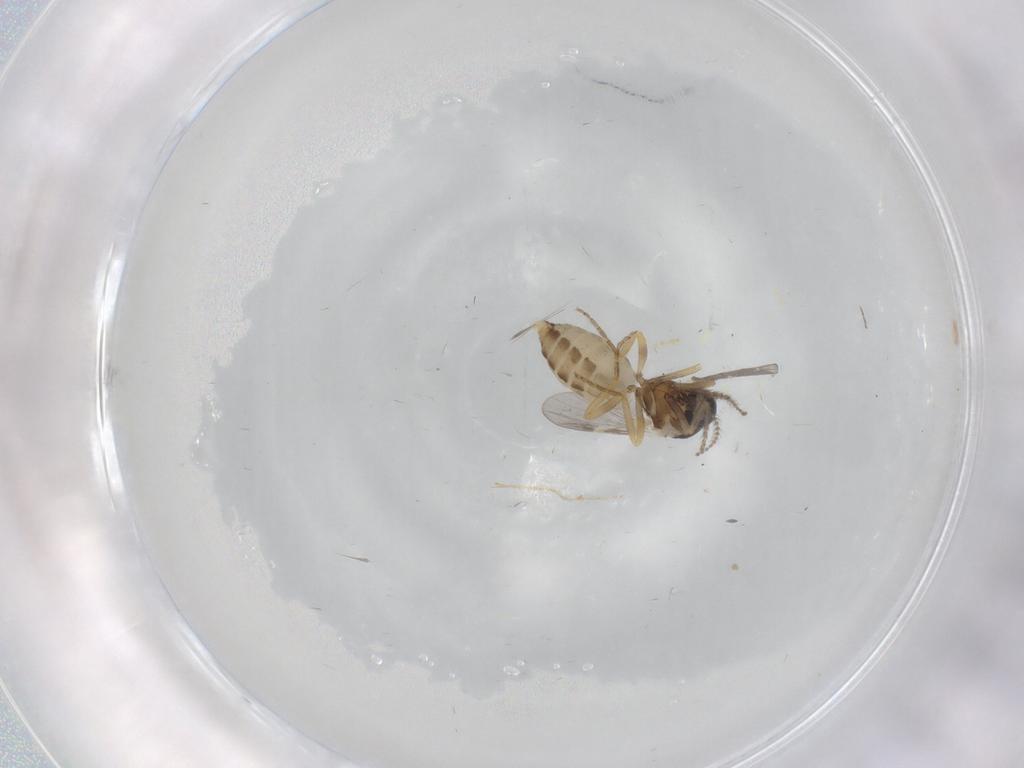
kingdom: Animalia
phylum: Arthropoda
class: Insecta
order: Diptera
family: Ceratopogonidae
